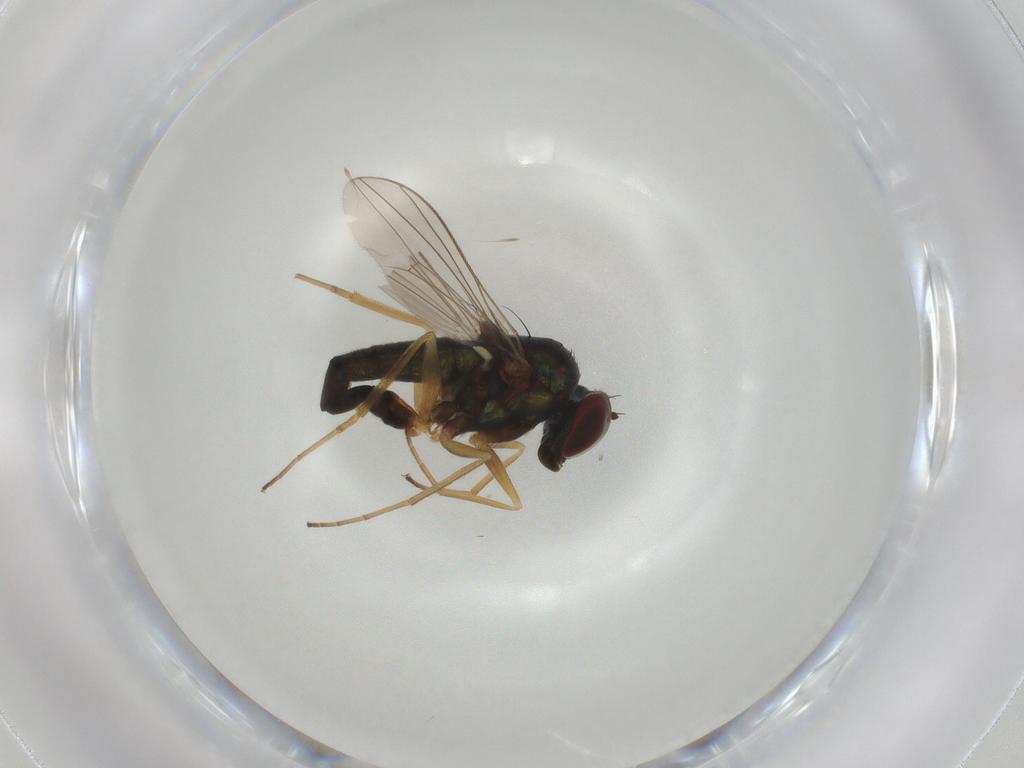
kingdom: Animalia
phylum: Arthropoda
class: Insecta
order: Diptera
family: Dolichopodidae
